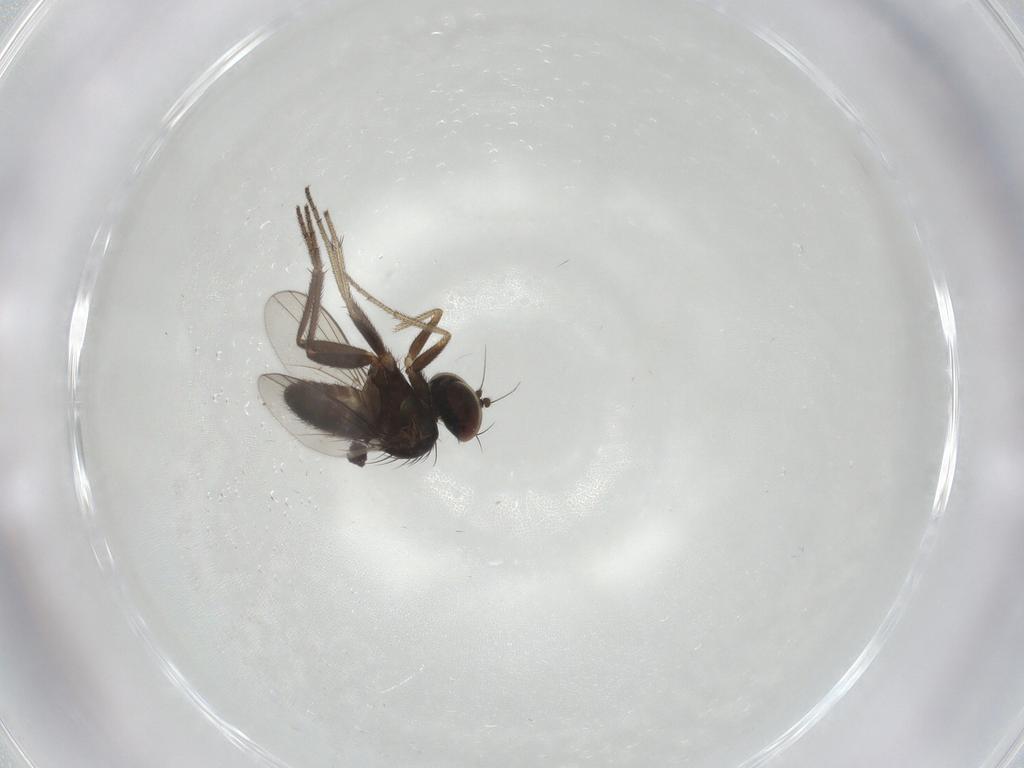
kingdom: Animalia
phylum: Arthropoda
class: Insecta
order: Diptera
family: Dolichopodidae
